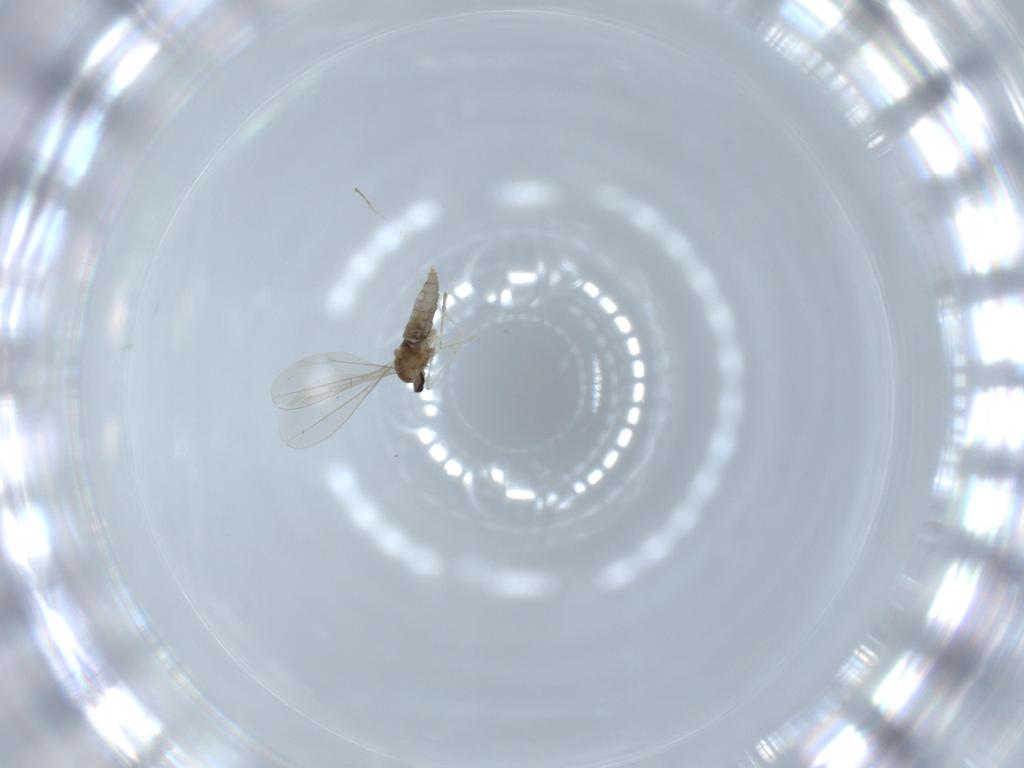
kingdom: Animalia
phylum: Arthropoda
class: Insecta
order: Diptera
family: Cecidomyiidae
